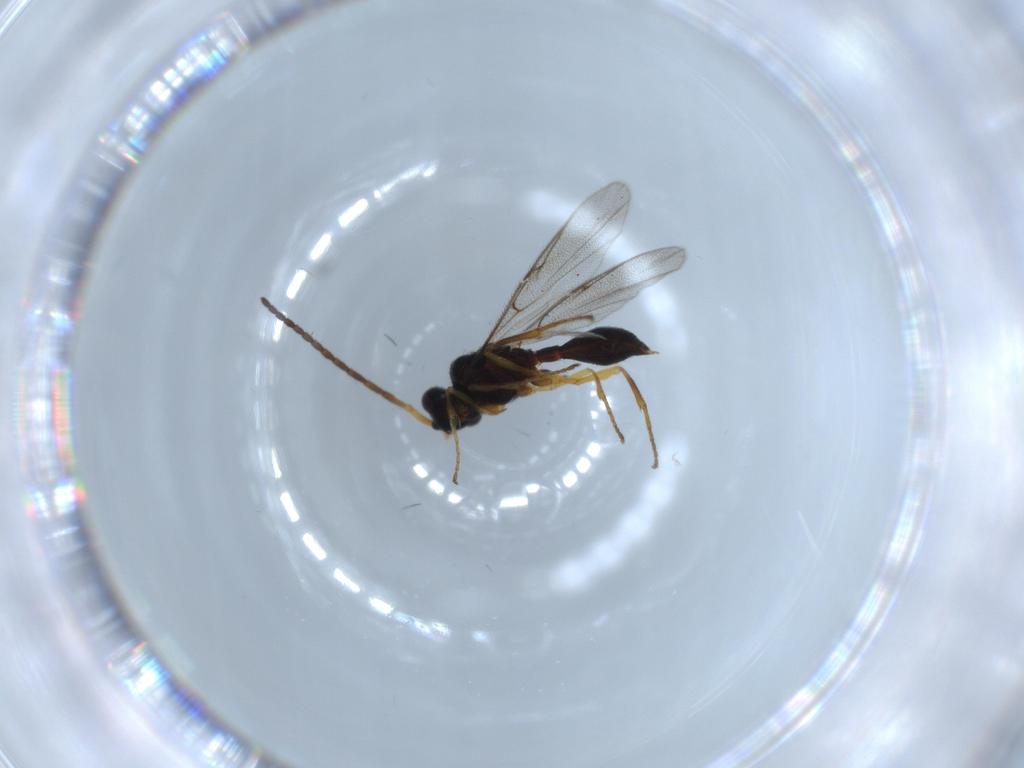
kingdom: Animalia
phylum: Arthropoda
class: Insecta
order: Hymenoptera
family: Diapriidae
